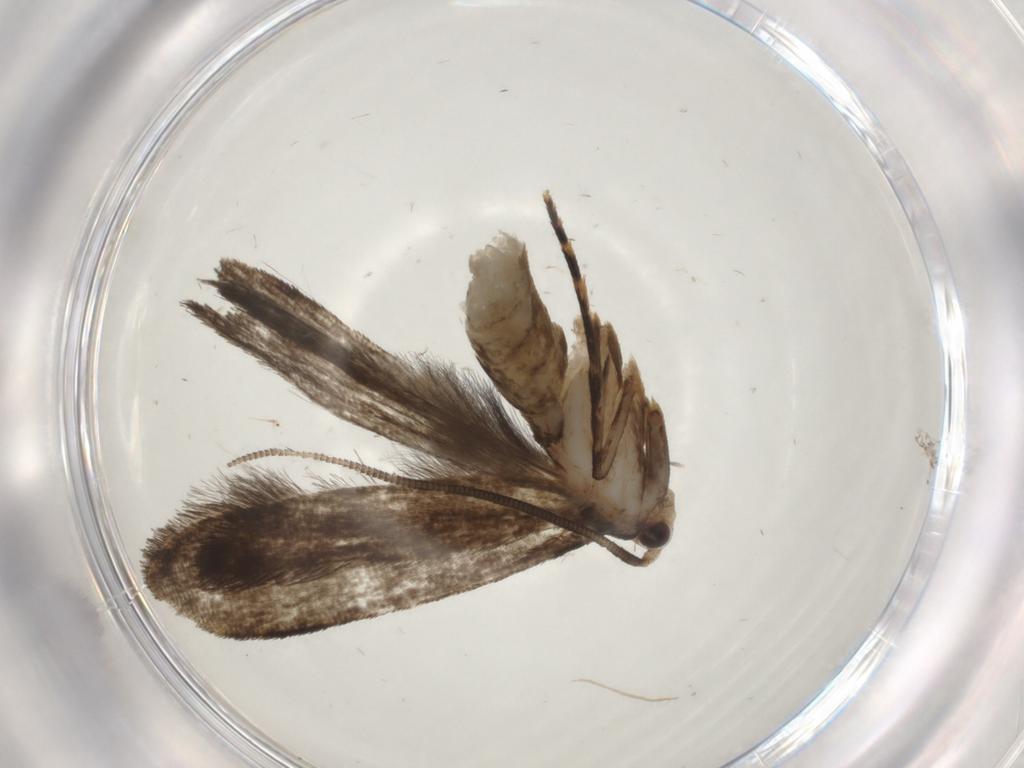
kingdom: Animalia
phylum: Arthropoda
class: Insecta
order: Lepidoptera
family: Tineidae
